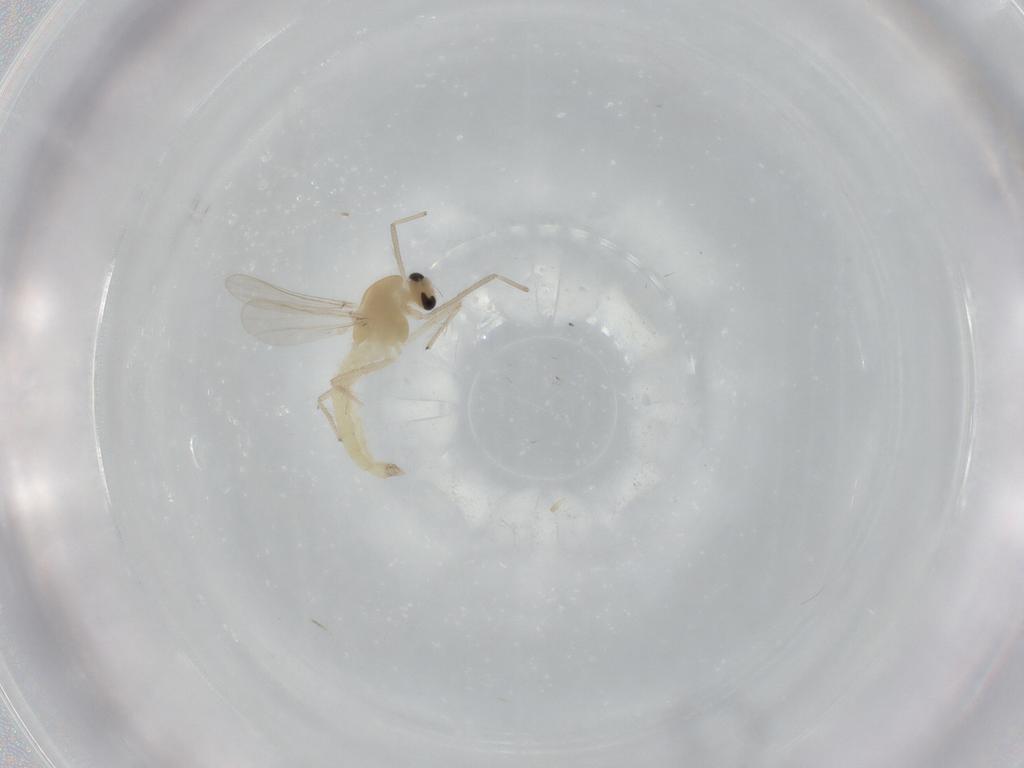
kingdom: Animalia
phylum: Arthropoda
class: Insecta
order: Diptera
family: Chironomidae
